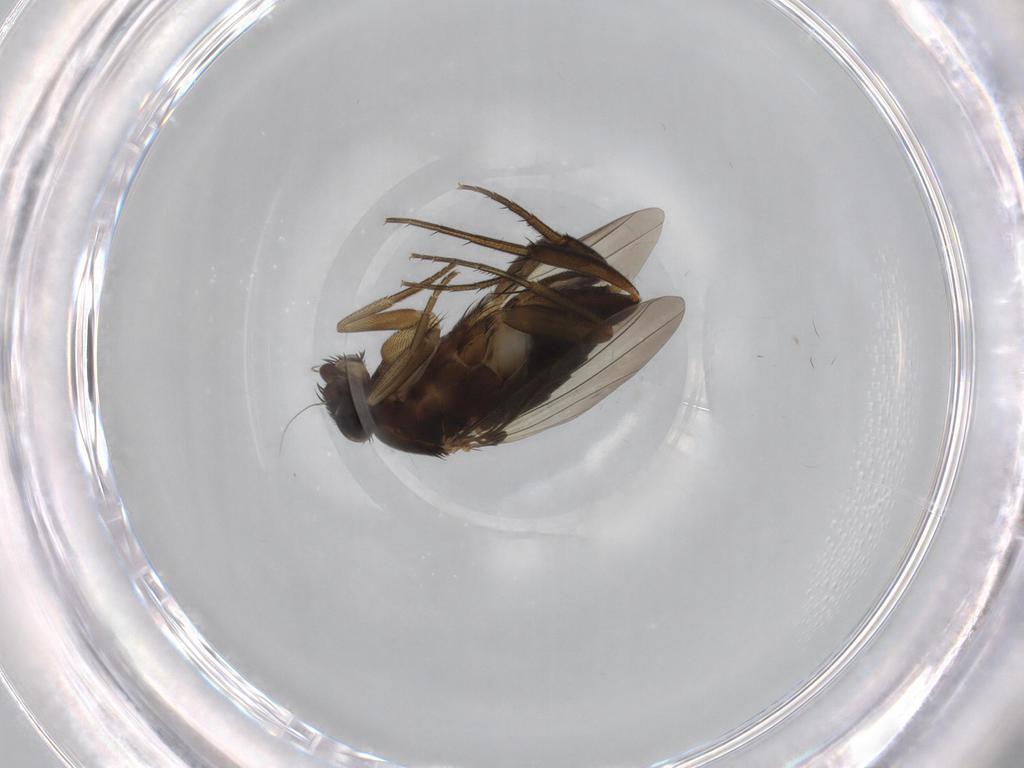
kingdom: Animalia
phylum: Arthropoda
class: Insecta
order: Diptera
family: Phoridae
